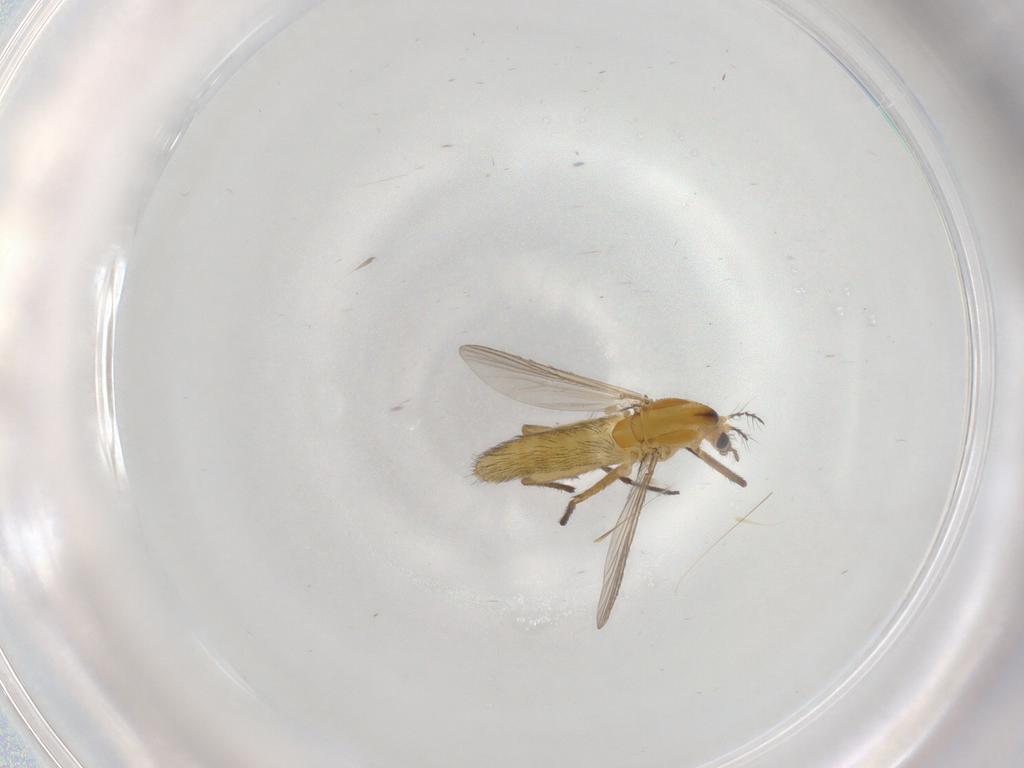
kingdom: Animalia
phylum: Arthropoda
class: Insecta
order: Diptera
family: Chironomidae
